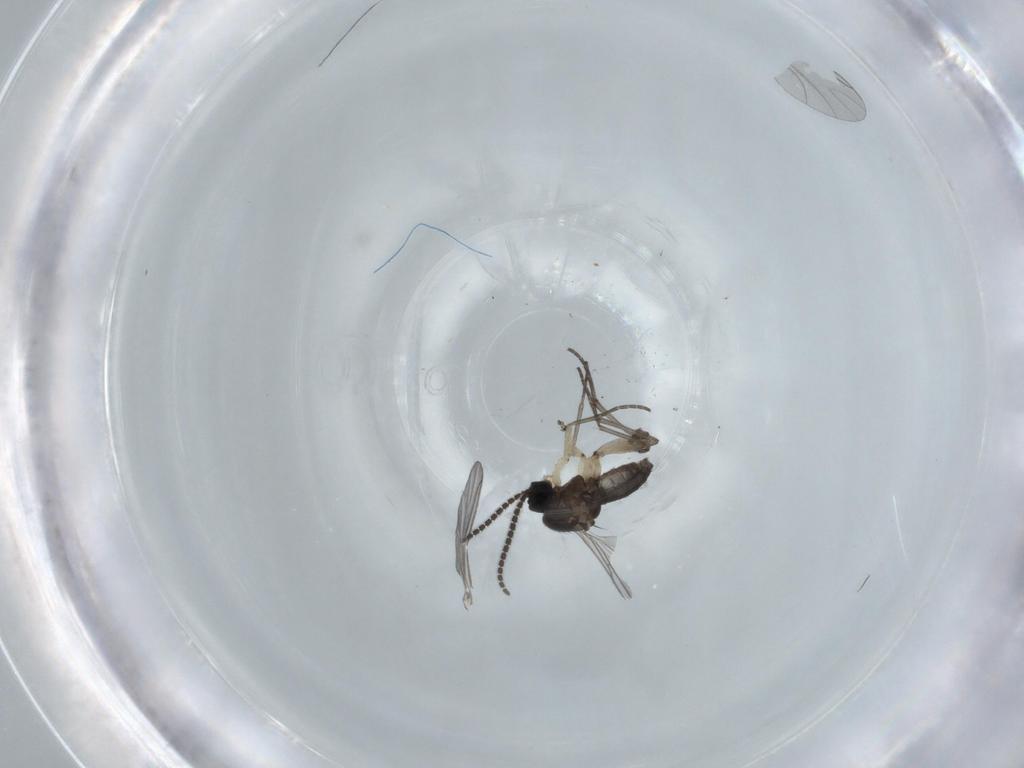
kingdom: Animalia
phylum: Arthropoda
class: Insecta
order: Diptera
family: Sciaridae
